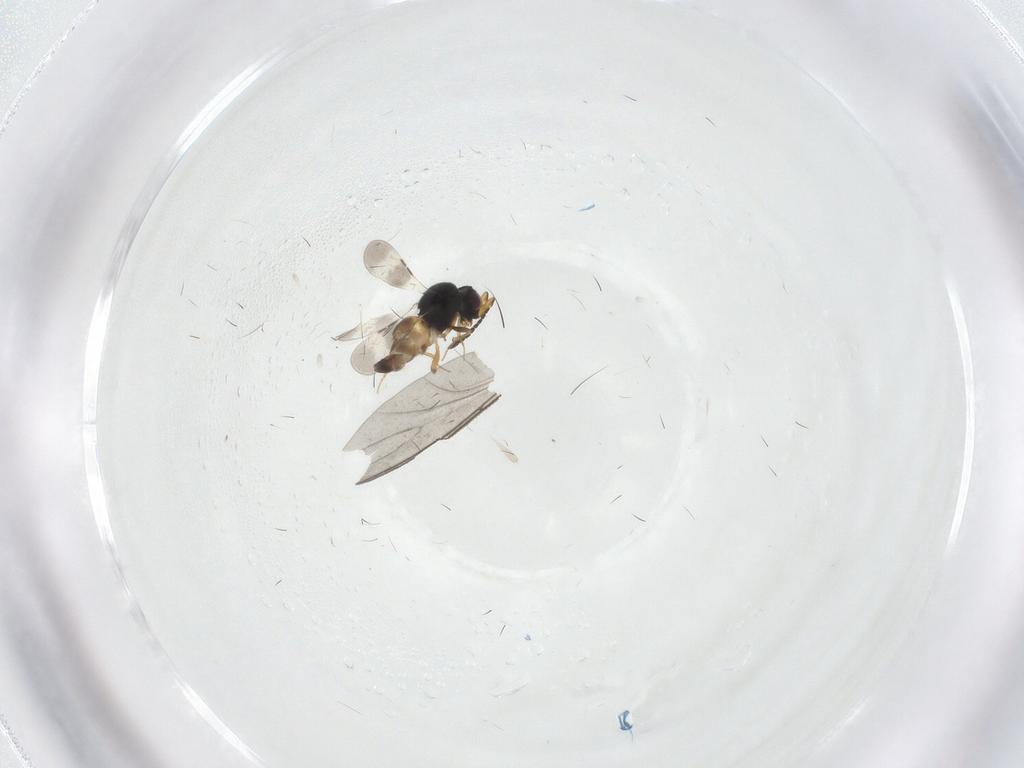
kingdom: Animalia
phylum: Arthropoda
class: Insecta
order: Hymenoptera
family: Ceraphronidae
